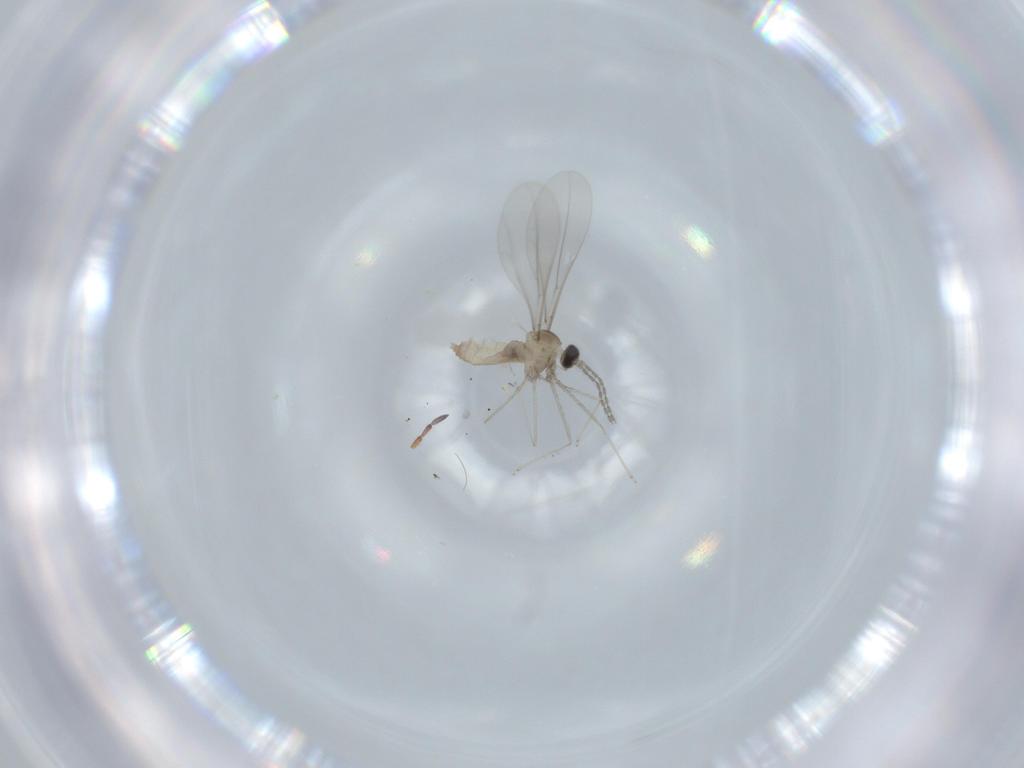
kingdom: Animalia
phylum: Arthropoda
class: Insecta
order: Diptera
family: Cecidomyiidae
